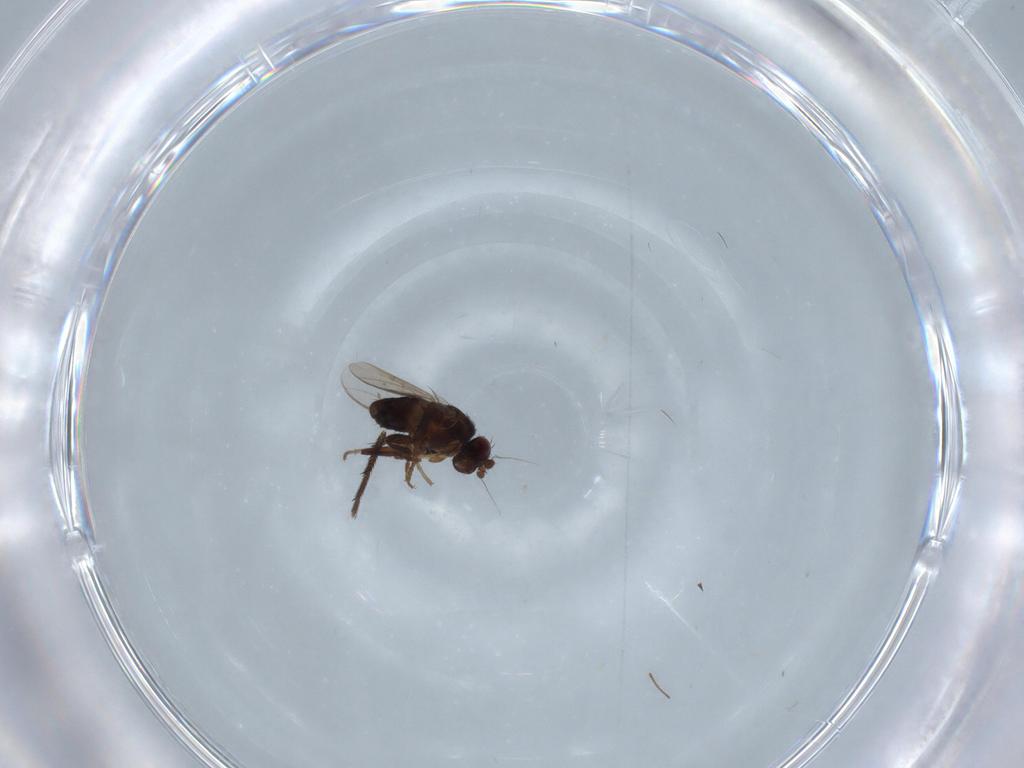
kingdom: Animalia
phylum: Arthropoda
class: Insecta
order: Diptera
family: Sphaeroceridae
